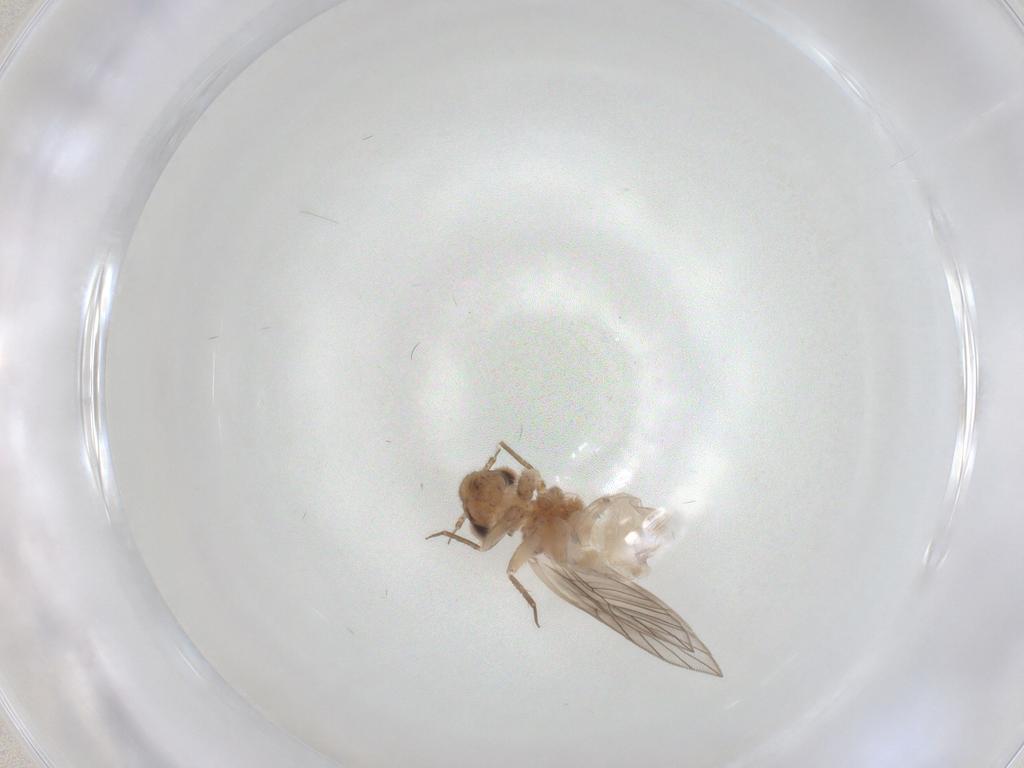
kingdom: Animalia
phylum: Arthropoda
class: Insecta
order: Psocodea
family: Lepidopsocidae
